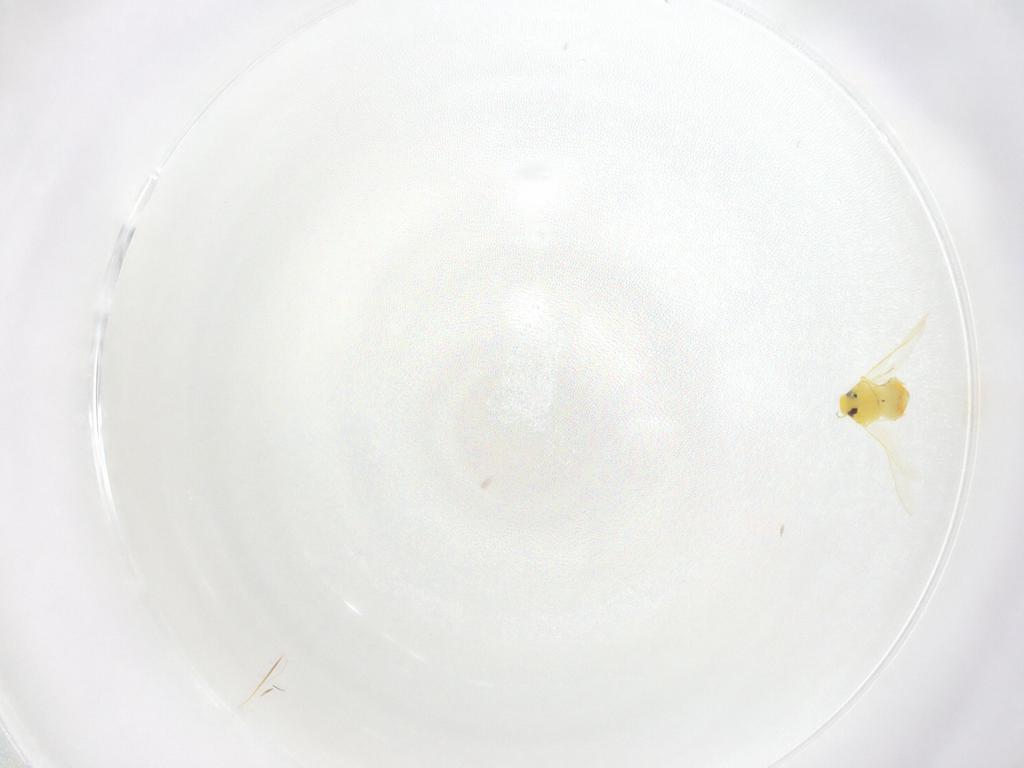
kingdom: Animalia
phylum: Arthropoda
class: Insecta
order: Hemiptera
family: Aleyrodidae
